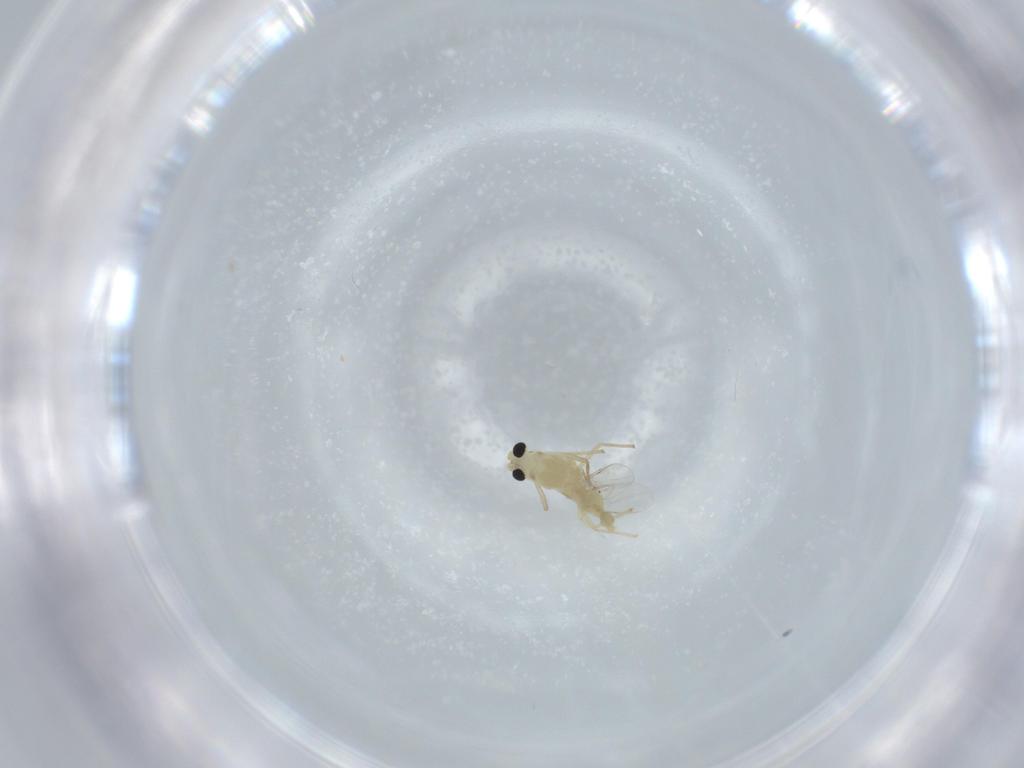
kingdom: Animalia
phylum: Arthropoda
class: Insecta
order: Diptera
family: Chironomidae
